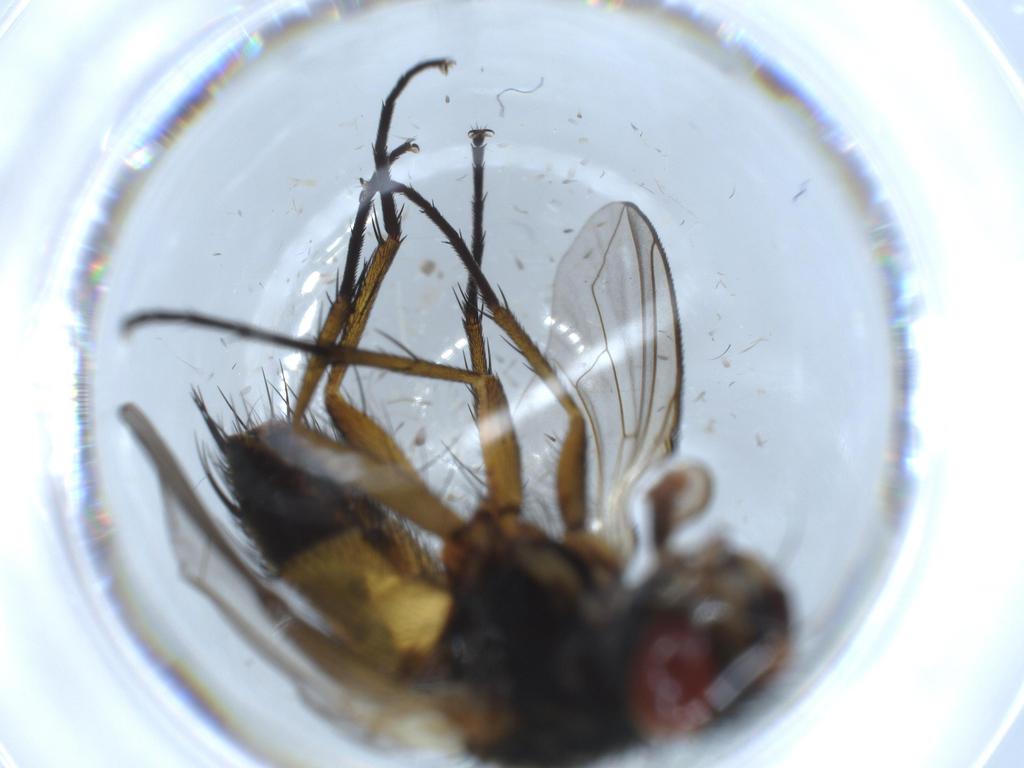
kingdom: Animalia
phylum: Arthropoda
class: Insecta
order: Diptera
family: Tachinidae
